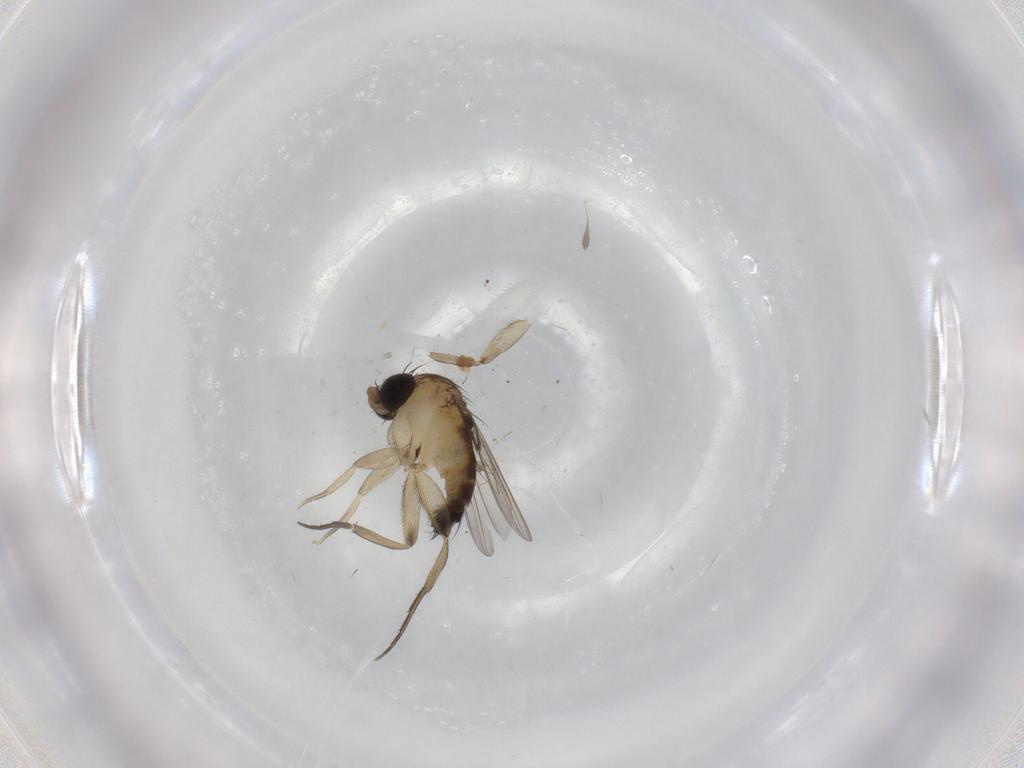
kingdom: Animalia
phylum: Arthropoda
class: Insecta
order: Diptera
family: Phoridae
